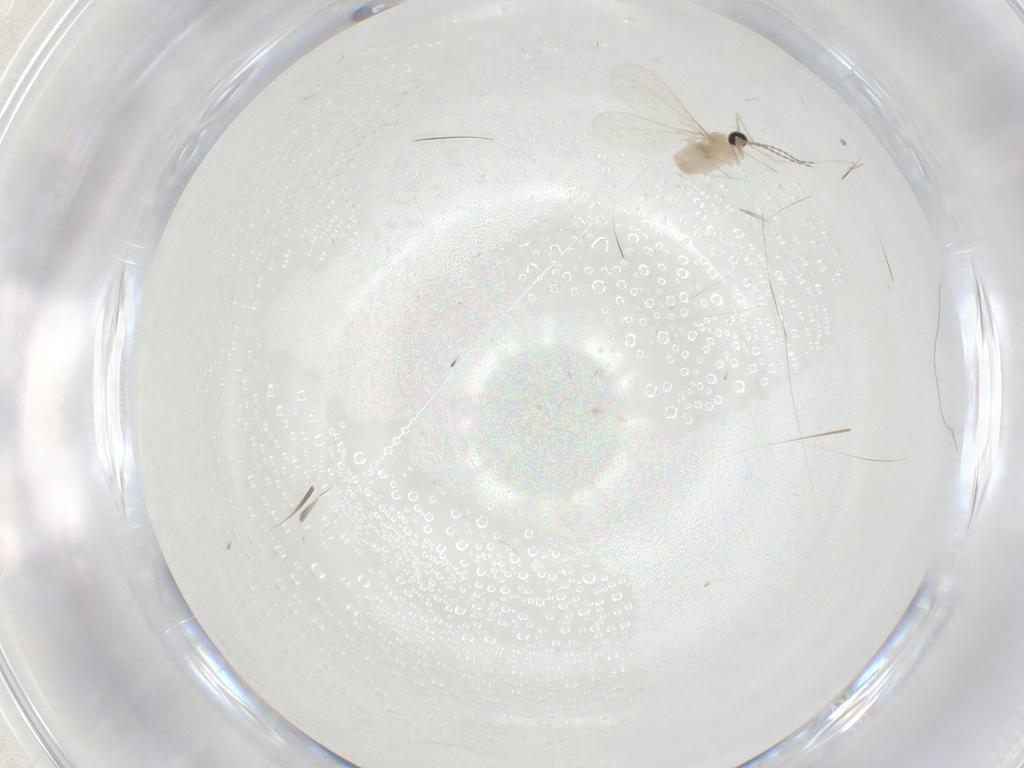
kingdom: Animalia
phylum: Arthropoda
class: Insecta
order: Diptera
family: Cecidomyiidae
